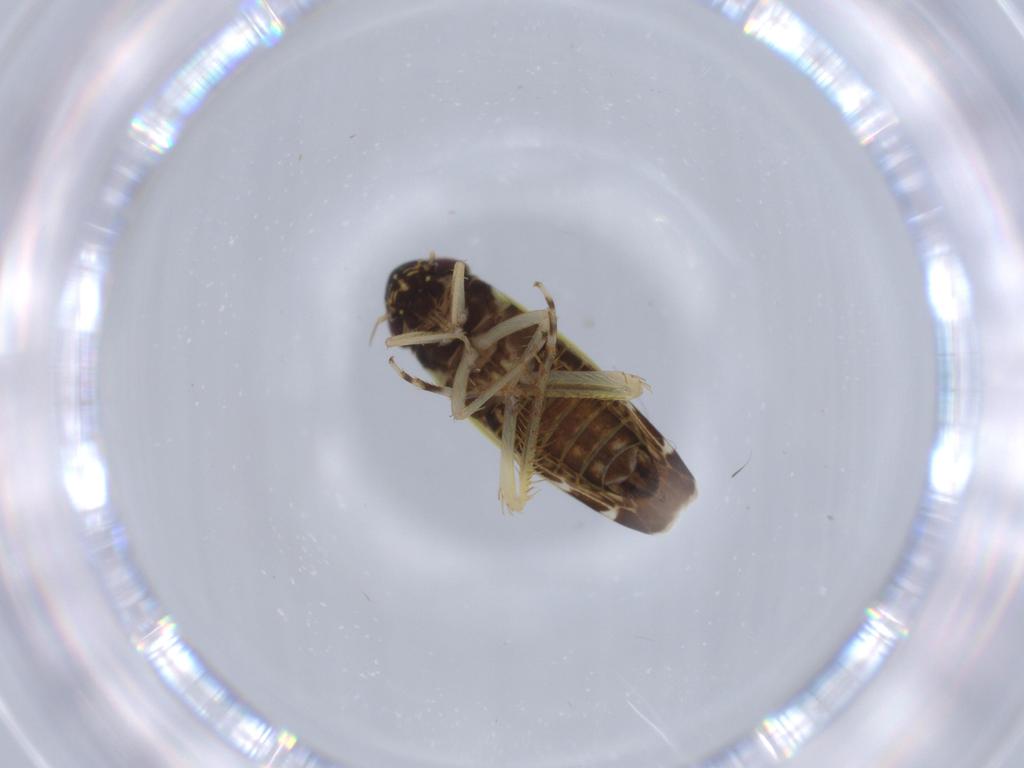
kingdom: Animalia
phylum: Arthropoda
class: Insecta
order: Hemiptera
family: Cicadellidae
